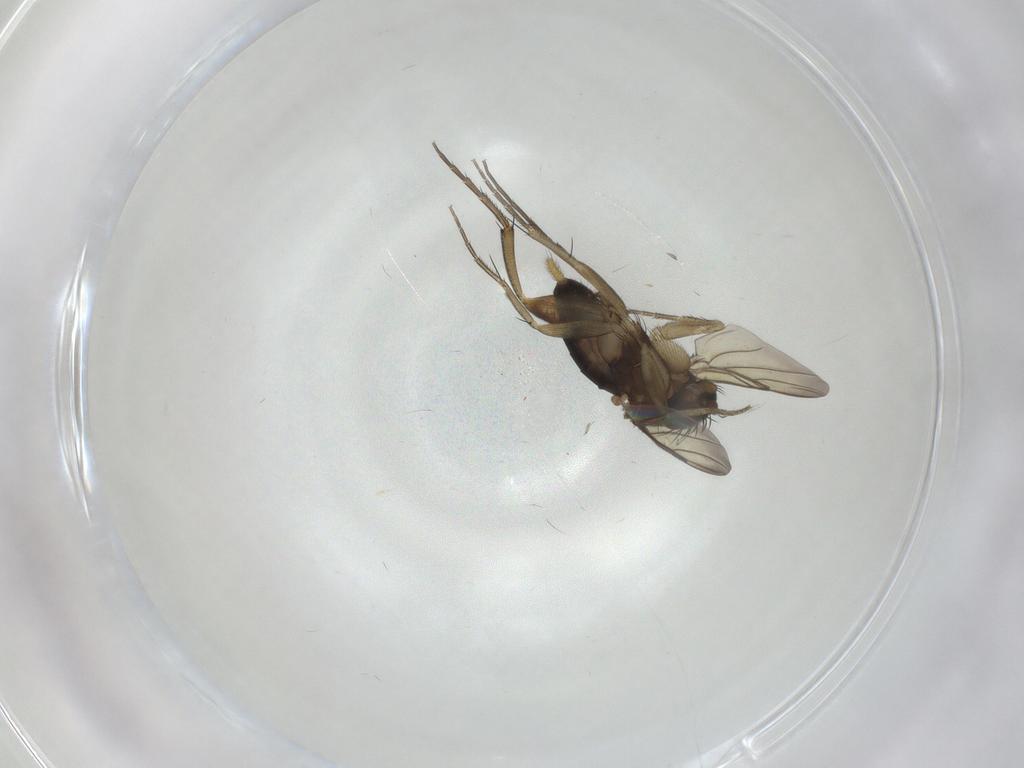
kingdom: Animalia
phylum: Arthropoda
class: Insecta
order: Diptera
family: Phoridae
